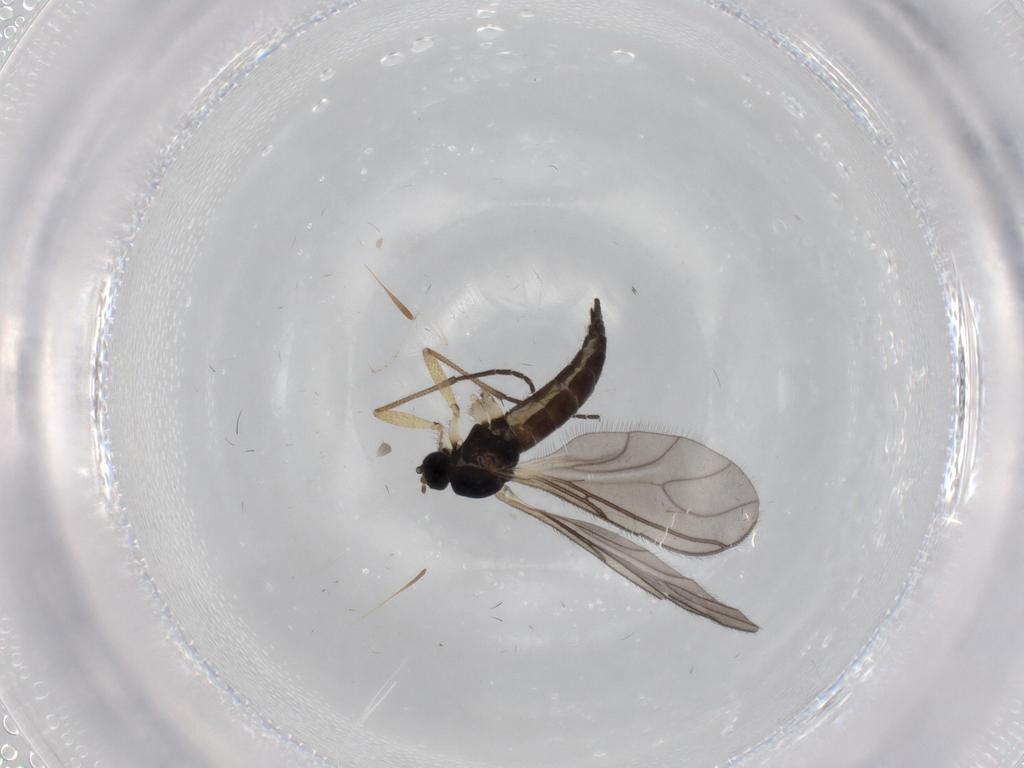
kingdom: Animalia
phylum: Arthropoda
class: Insecta
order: Diptera
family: Sciaridae
